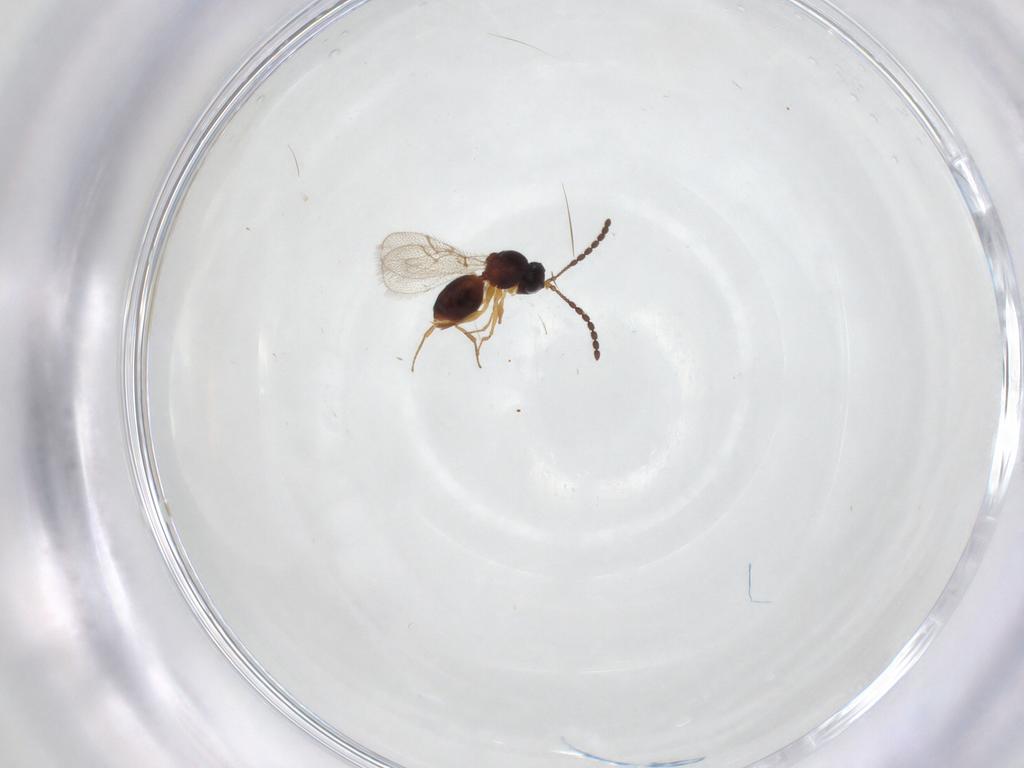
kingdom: Animalia
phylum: Arthropoda
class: Insecta
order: Hymenoptera
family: Figitidae
